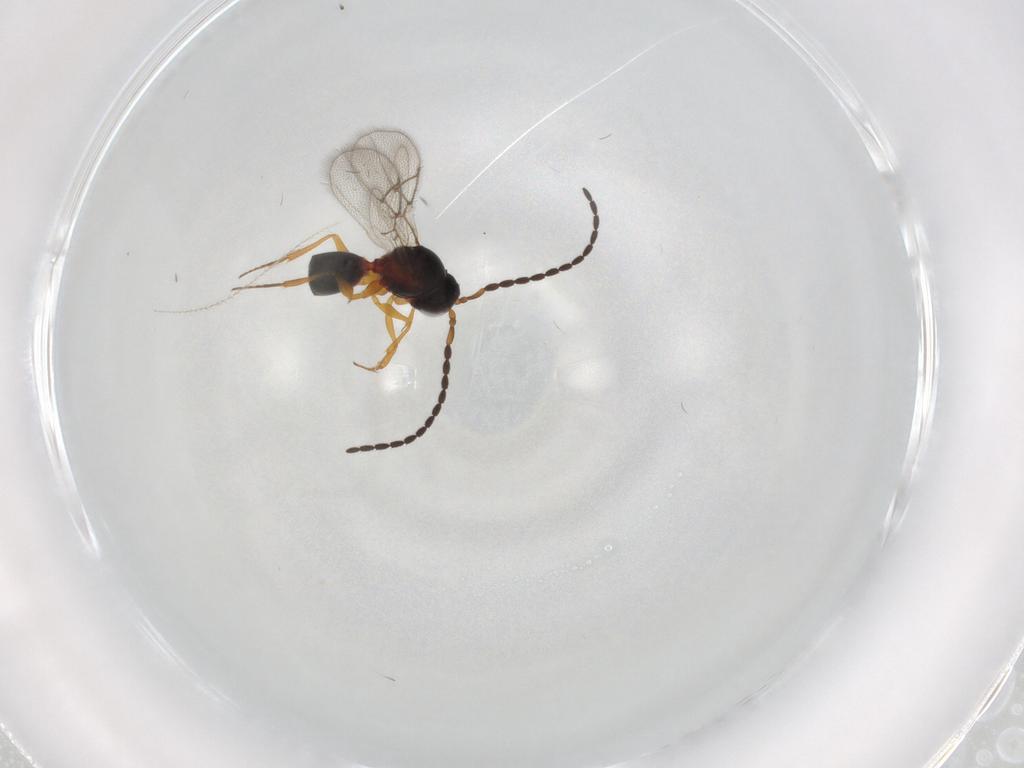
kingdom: Animalia
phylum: Arthropoda
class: Insecta
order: Hymenoptera
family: Figitidae
